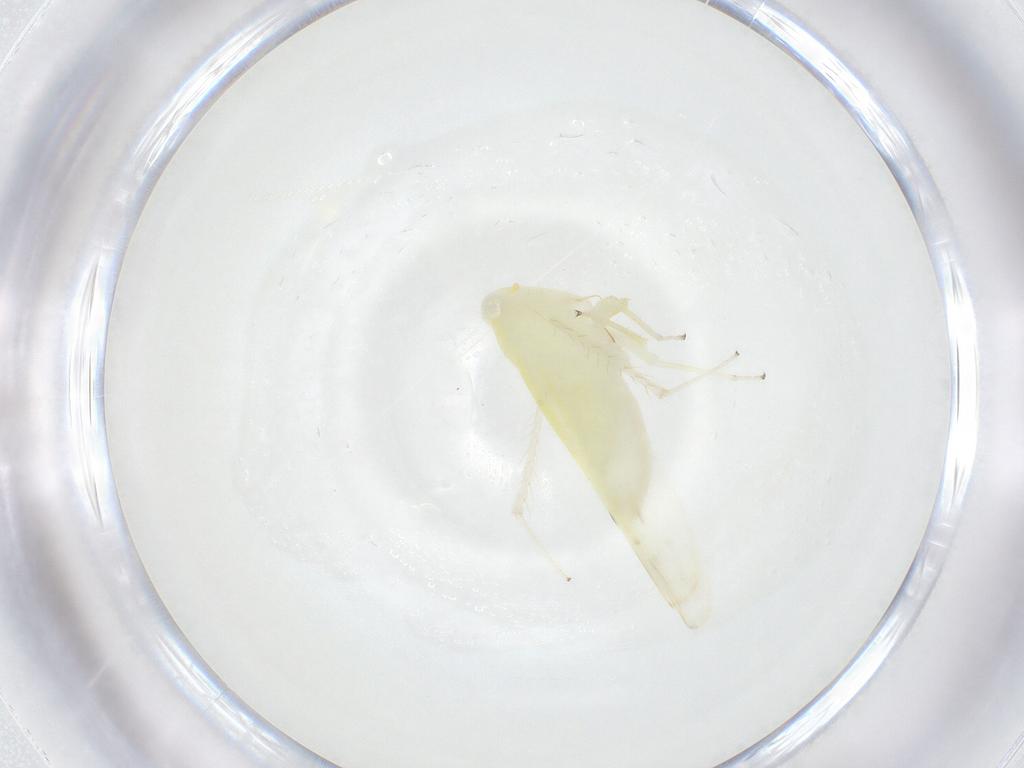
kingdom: Animalia
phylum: Arthropoda
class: Insecta
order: Hemiptera
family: Cicadellidae
